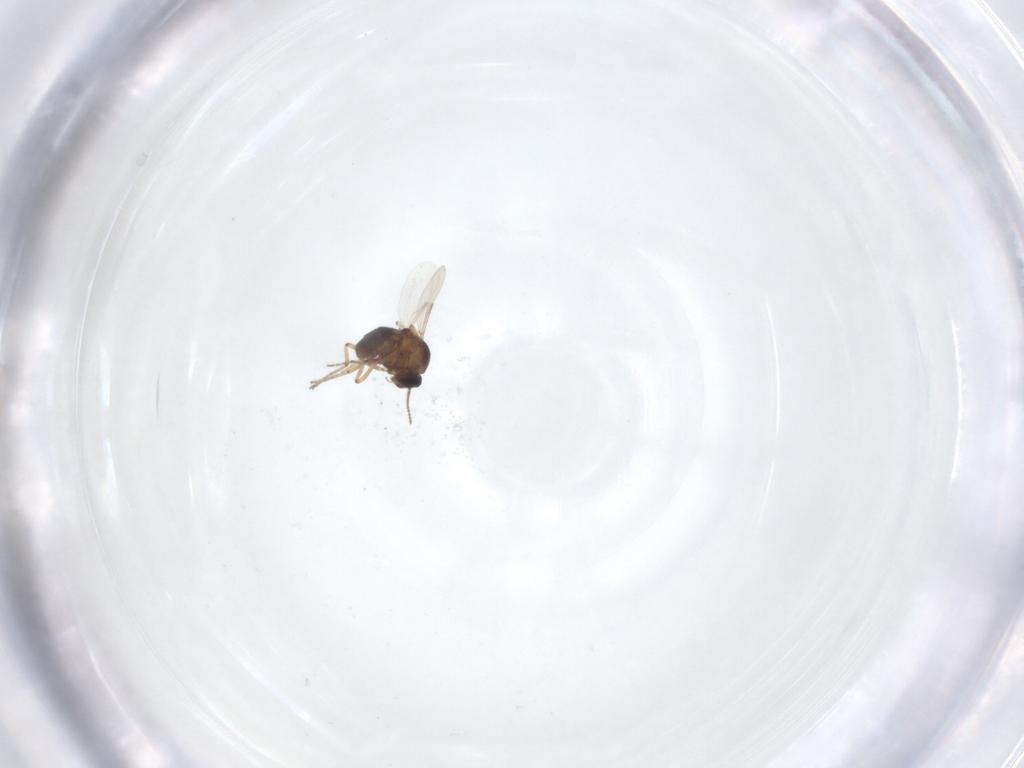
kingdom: Animalia
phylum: Arthropoda
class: Insecta
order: Diptera
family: Ceratopogonidae
